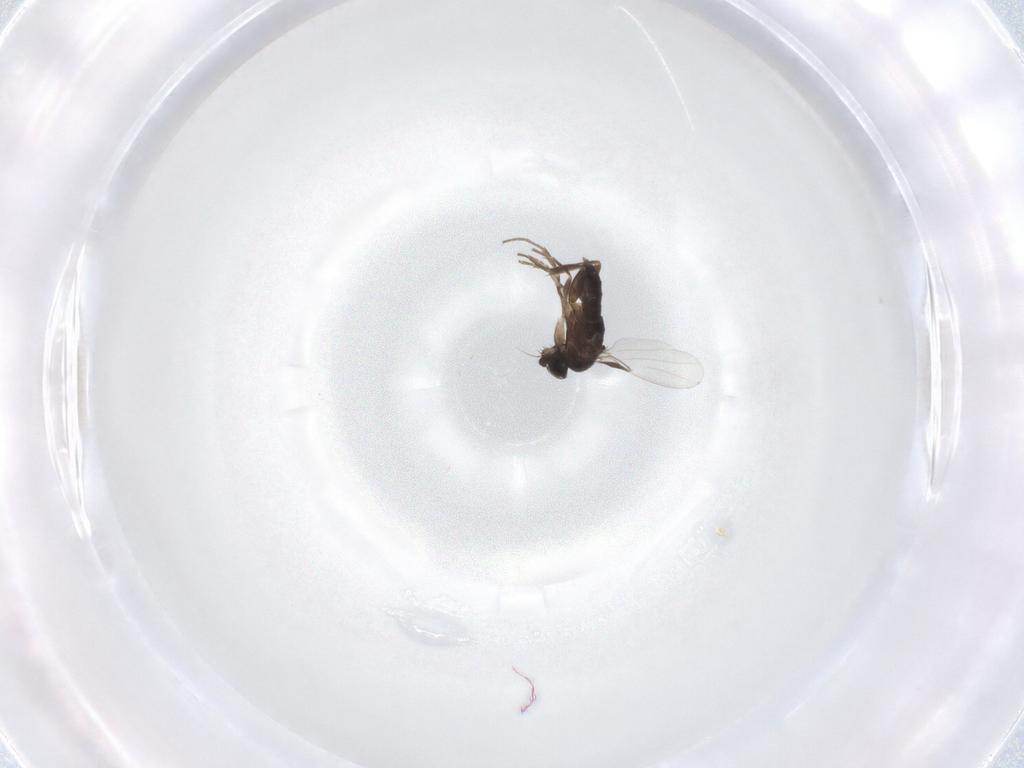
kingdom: Animalia
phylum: Arthropoda
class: Insecta
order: Diptera
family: Phoridae
